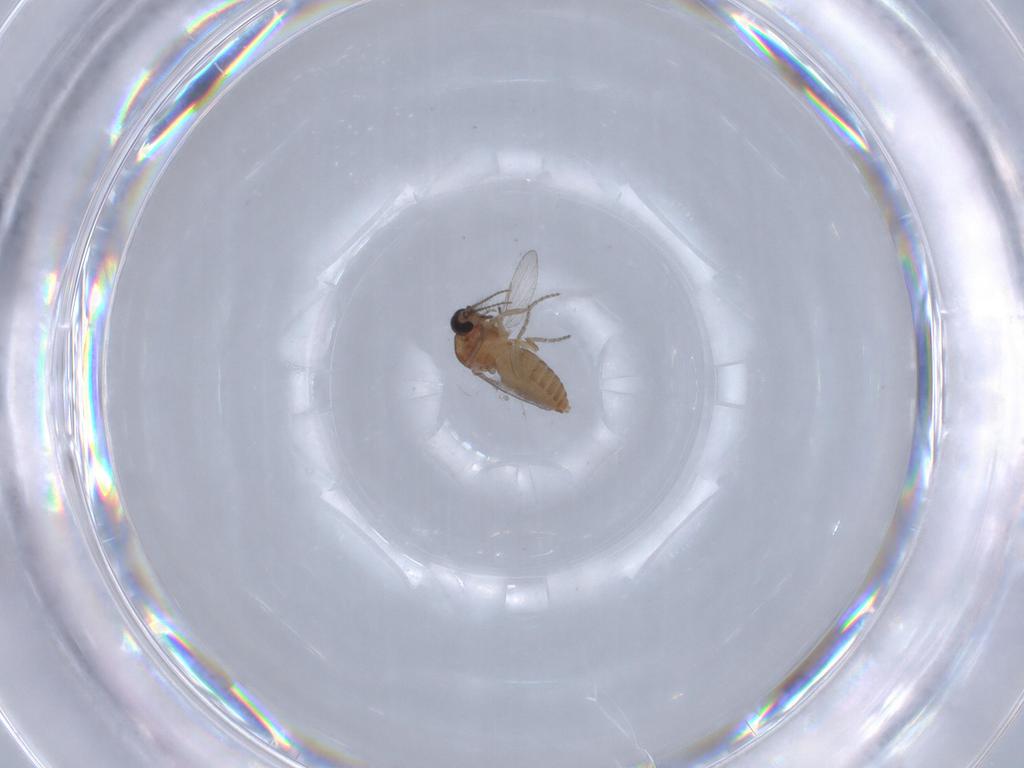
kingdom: Animalia
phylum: Arthropoda
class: Insecta
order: Diptera
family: Ceratopogonidae
